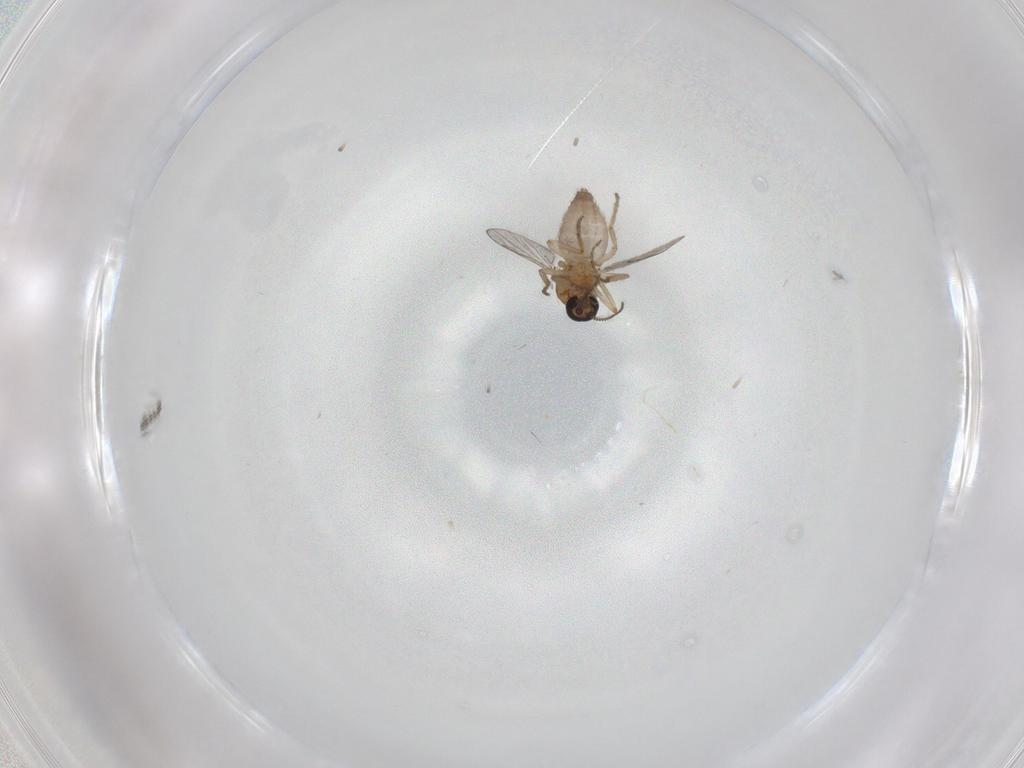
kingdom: Animalia
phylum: Arthropoda
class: Insecta
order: Diptera
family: Ceratopogonidae
